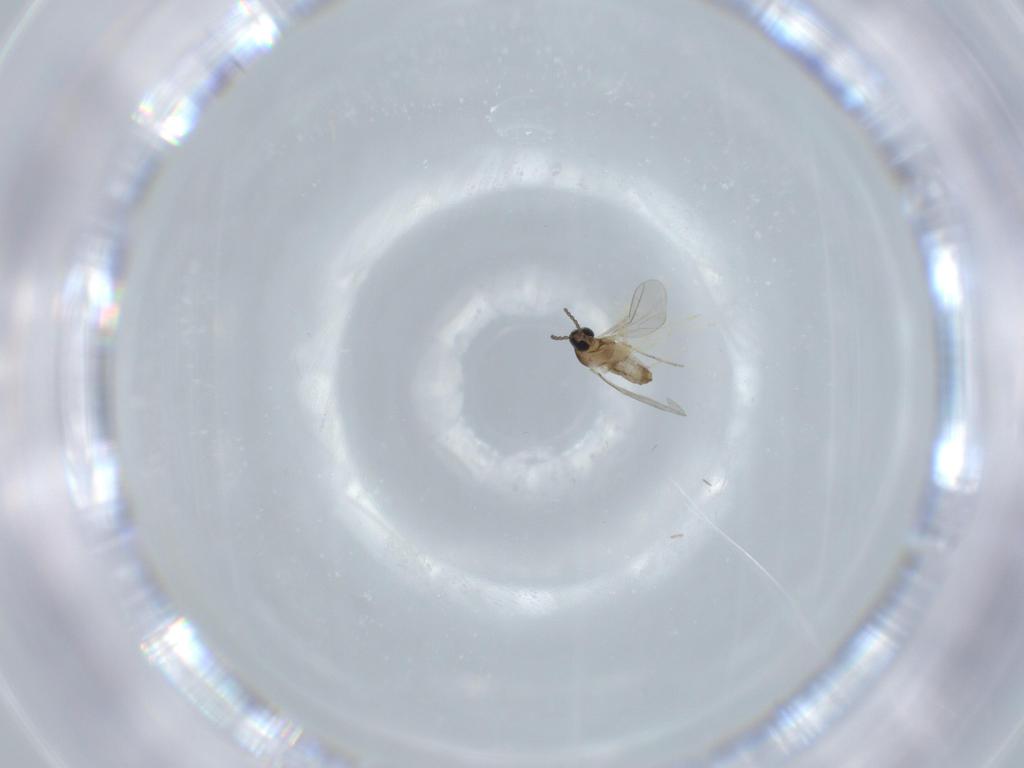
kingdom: Animalia
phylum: Arthropoda
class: Insecta
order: Diptera
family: Cecidomyiidae
